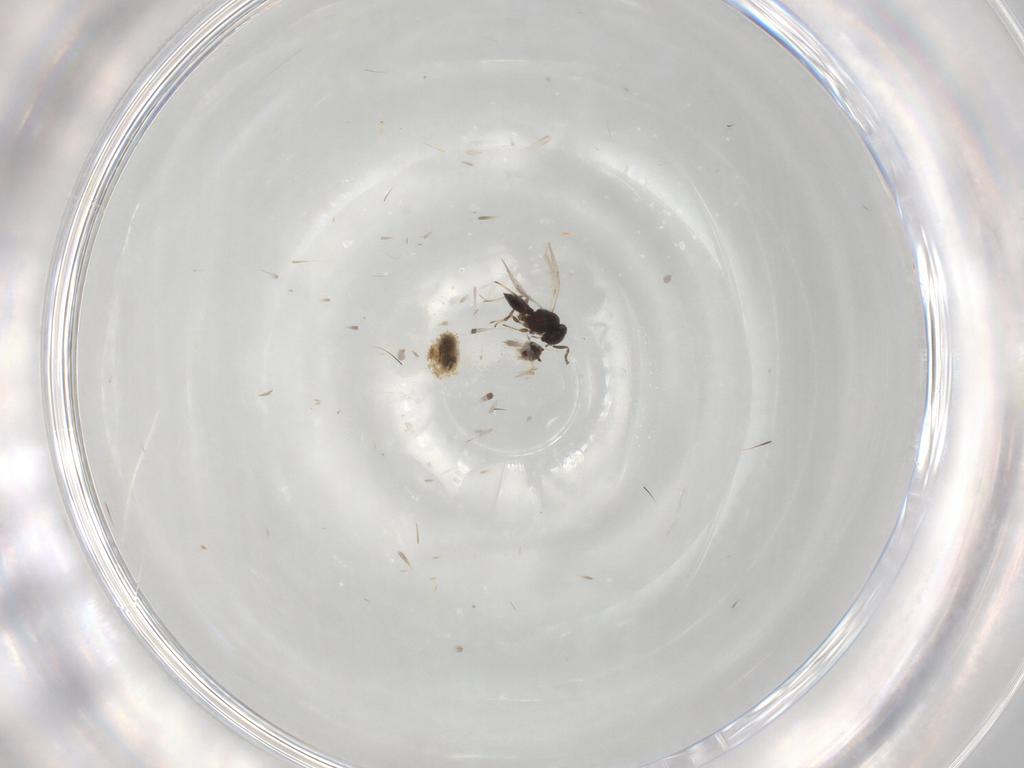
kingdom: Animalia
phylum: Arthropoda
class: Insecta
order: Hymenoptera
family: Scelionidae
